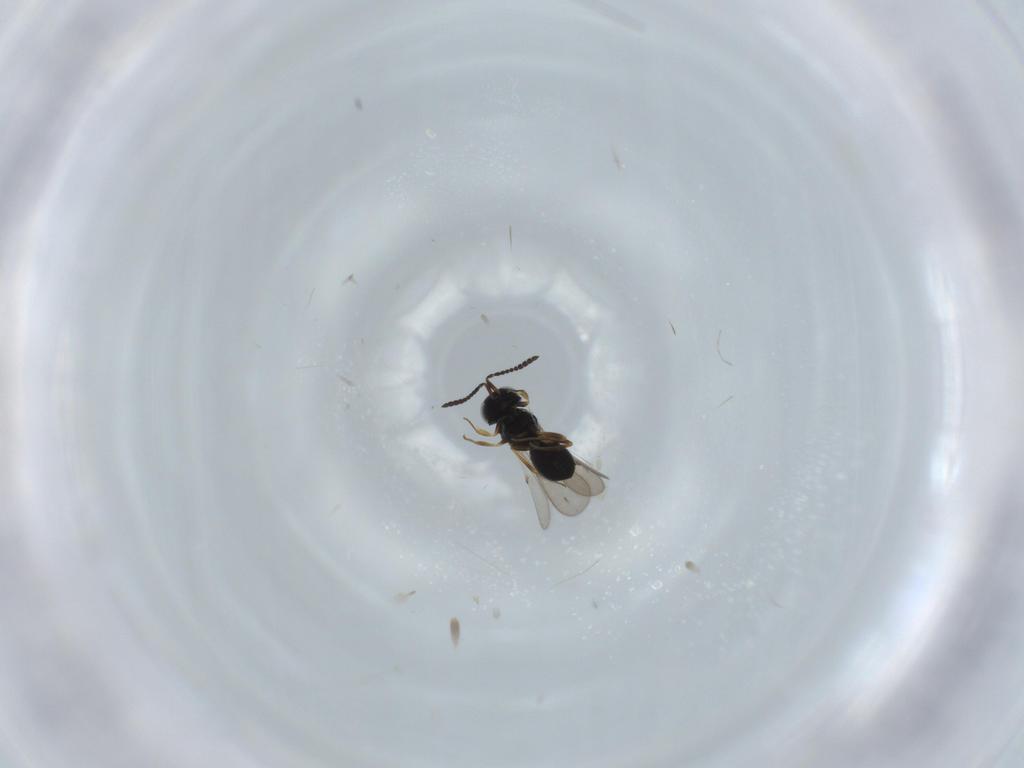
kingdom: Animalia
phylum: Arthropoda
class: Insecta
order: Hymenoptera
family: Scelionidae
